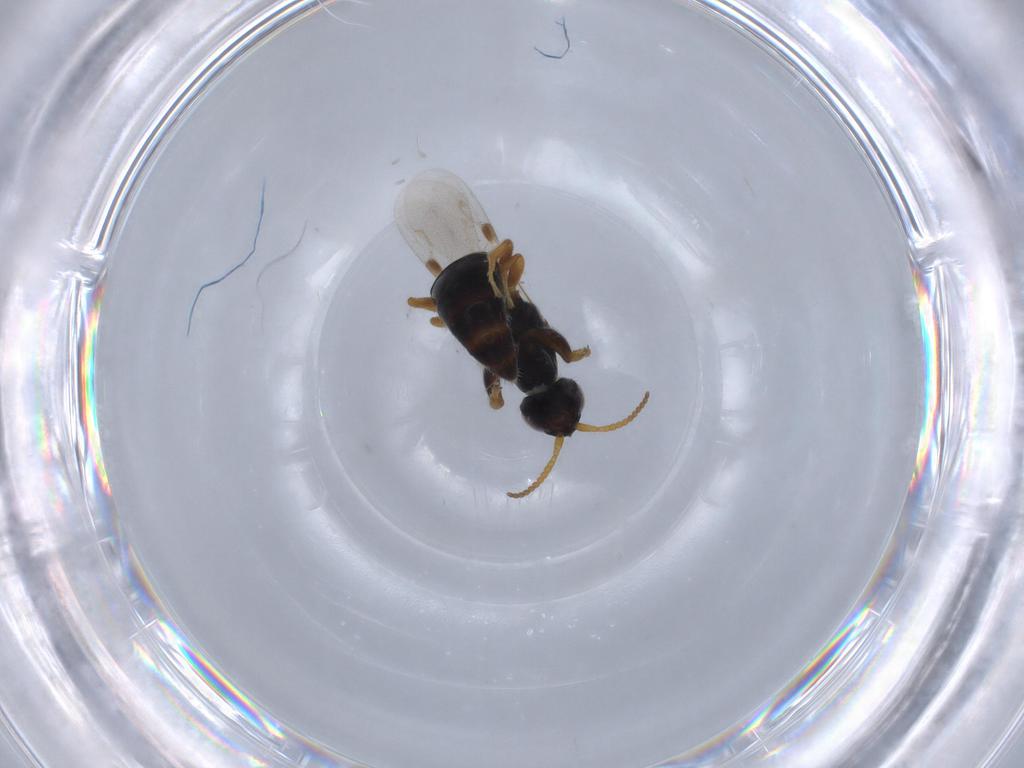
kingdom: Animalia
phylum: Arthropoda
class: Insecta
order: Hymenoptera
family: Bethylidae
